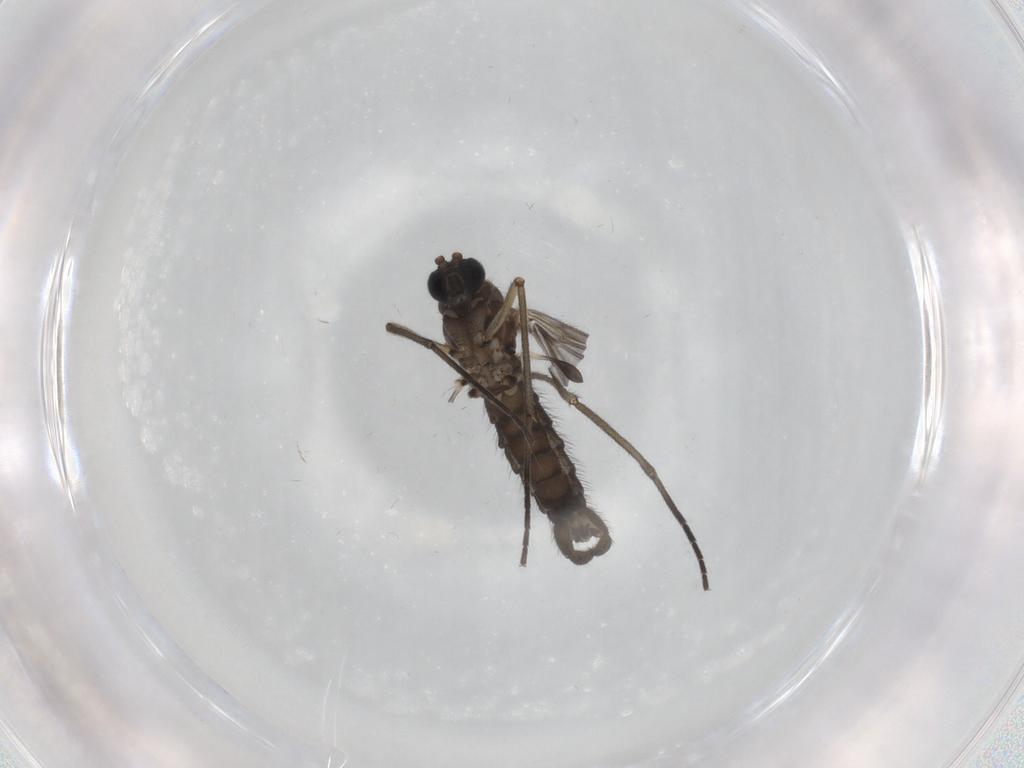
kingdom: Animalia
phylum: Arthropoda
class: Insecta
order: Diptera
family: Sciaridae
